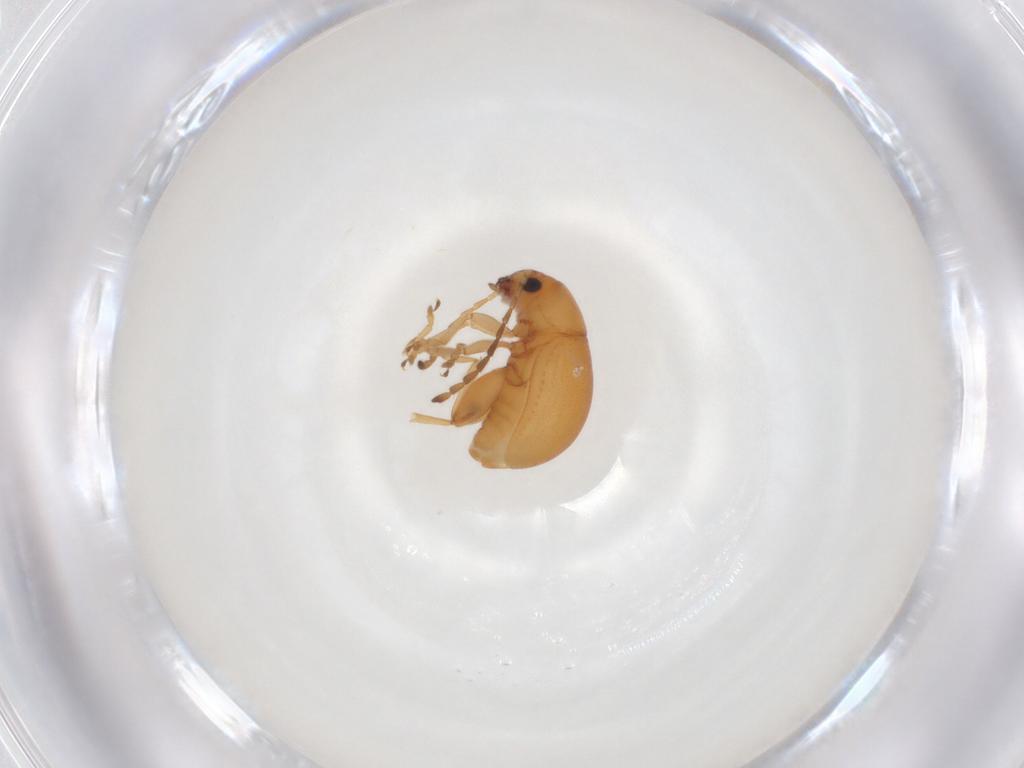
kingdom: Animalia
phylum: Arthropoda
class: Insecta
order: Coleoptera
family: Chrysomelidae
